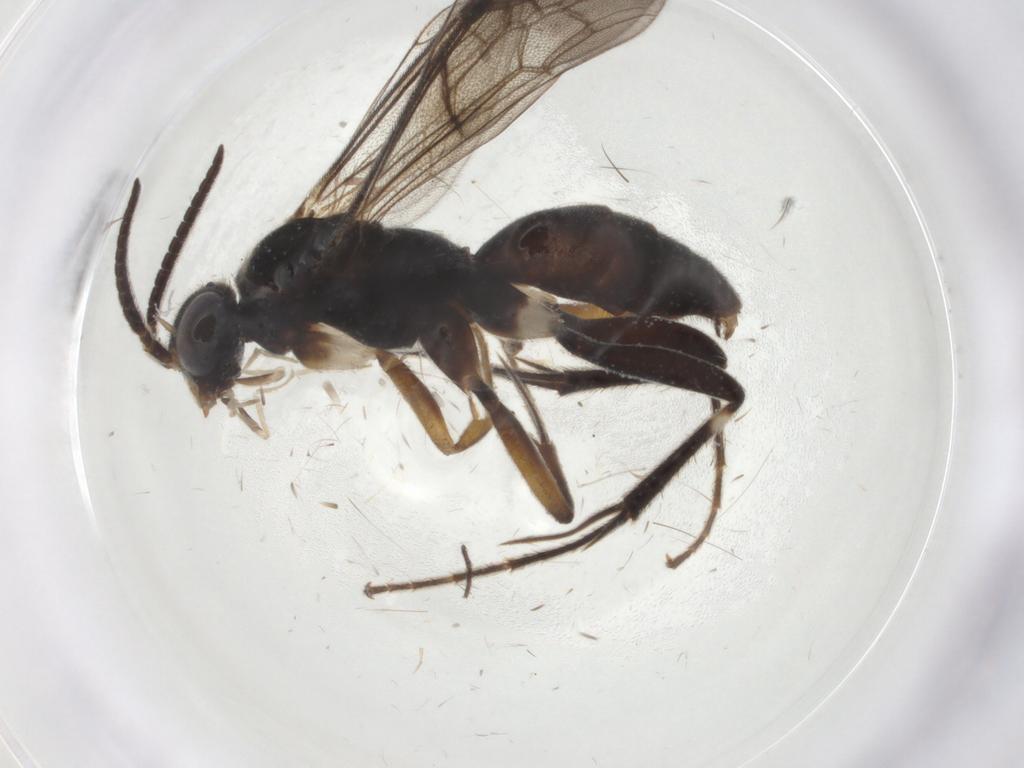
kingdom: Animalia
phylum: Arthropoda
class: Insecta
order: Hymenoptera
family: Pompilidae
